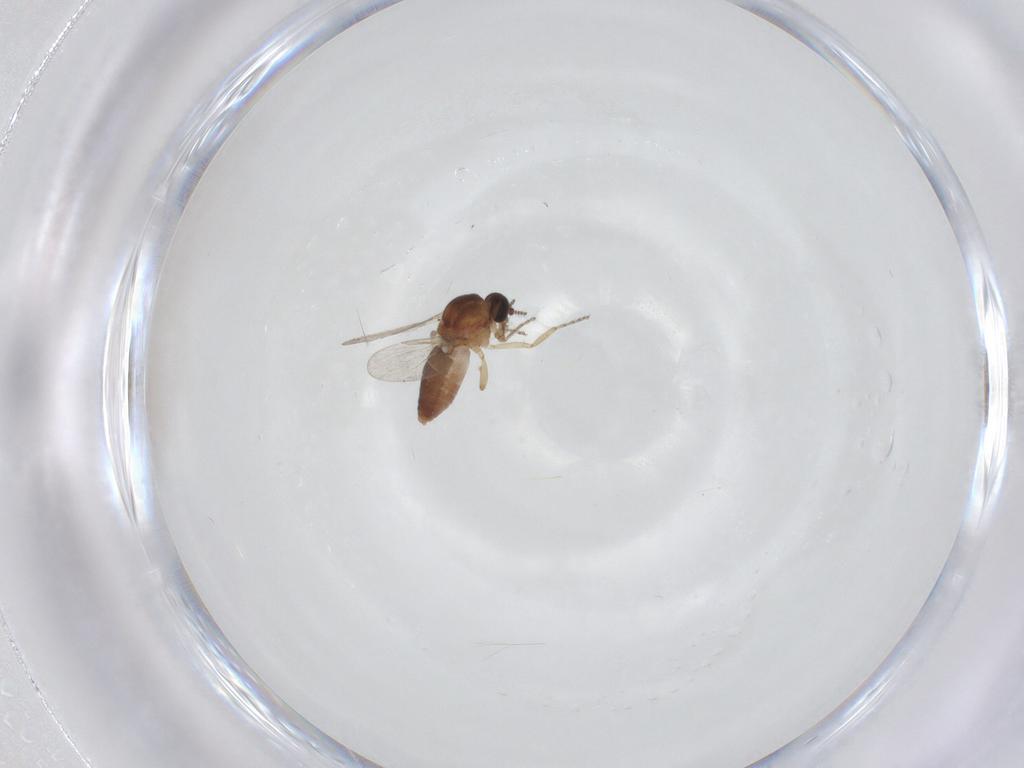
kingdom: Animalia
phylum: Arthropoda
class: Insecta
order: Diptera
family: Ceratopogonidae
